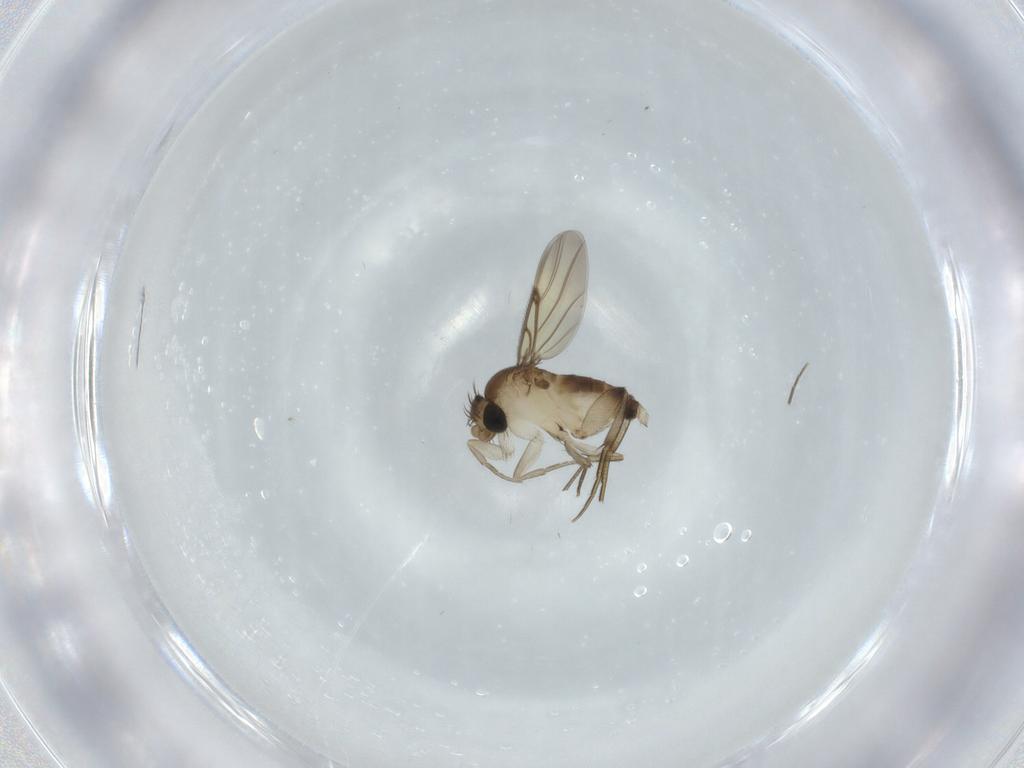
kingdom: Animalia
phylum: Arthropoda
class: Insecta
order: Diptera
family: Phoridae
